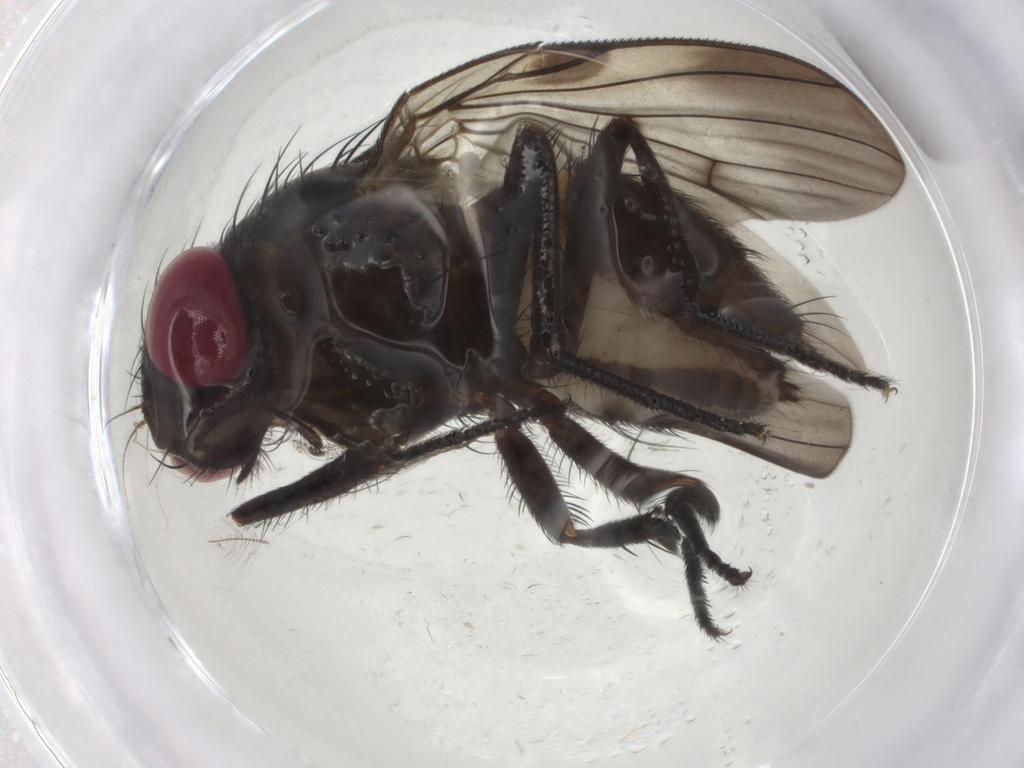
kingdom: Animalia
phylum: Arthropoda
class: Insecta
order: Diptera
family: Fanniidae
